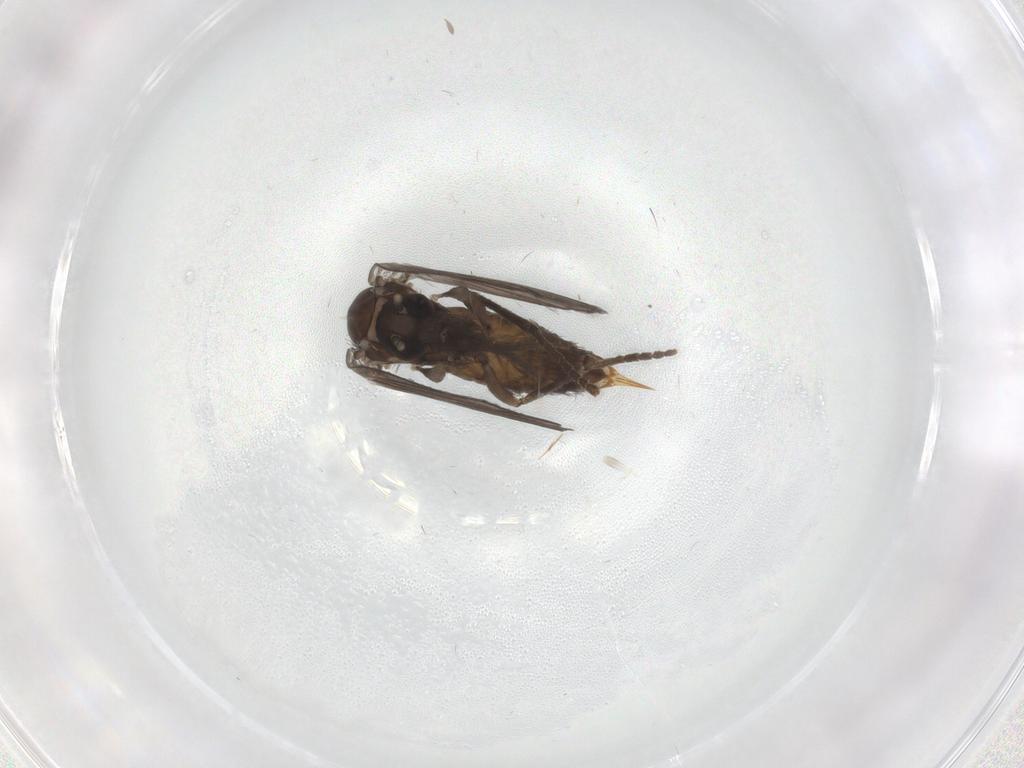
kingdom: Animalia
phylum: Arthropoda
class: Insecta
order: Diptera
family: Psychodidae
